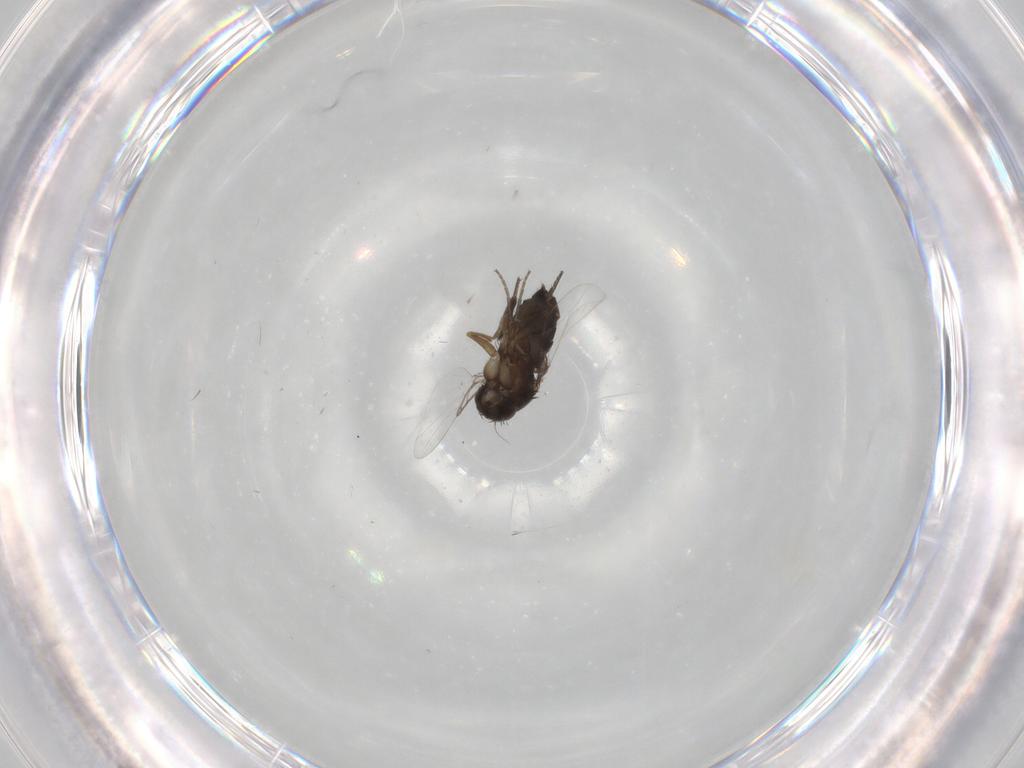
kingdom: Animalia
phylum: Arthropoda
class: Insecta
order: Diptera
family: Phoridae
